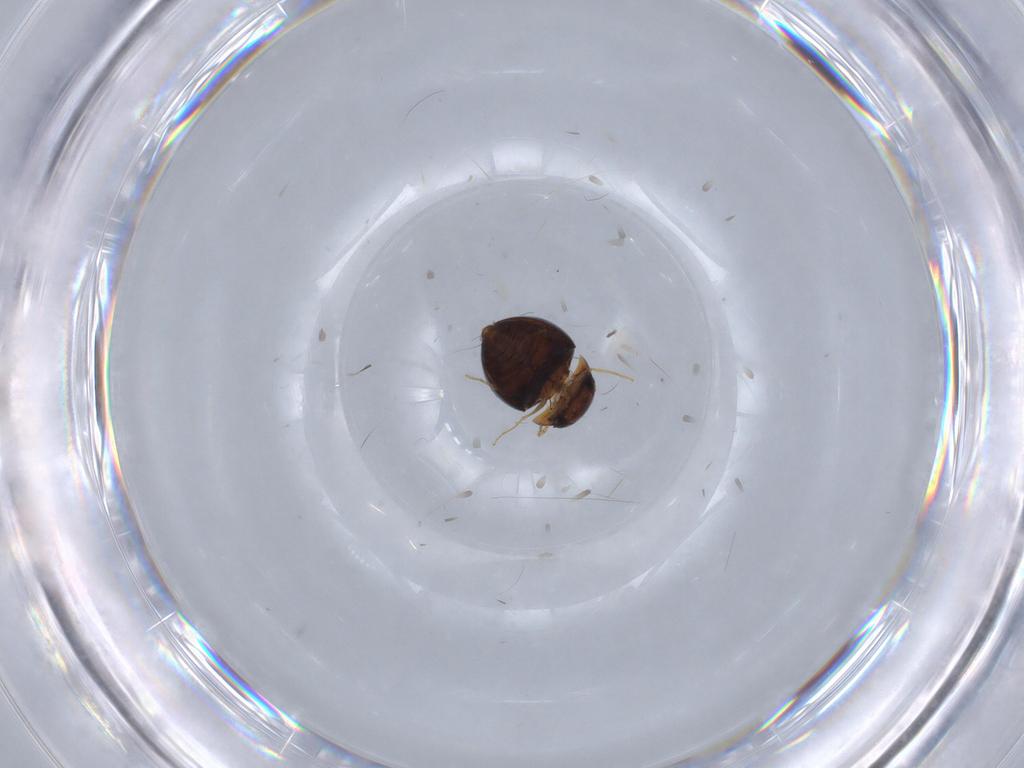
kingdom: Animalia
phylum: Arthropoda
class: Insecta
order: Coleoptera
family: Clambidae
